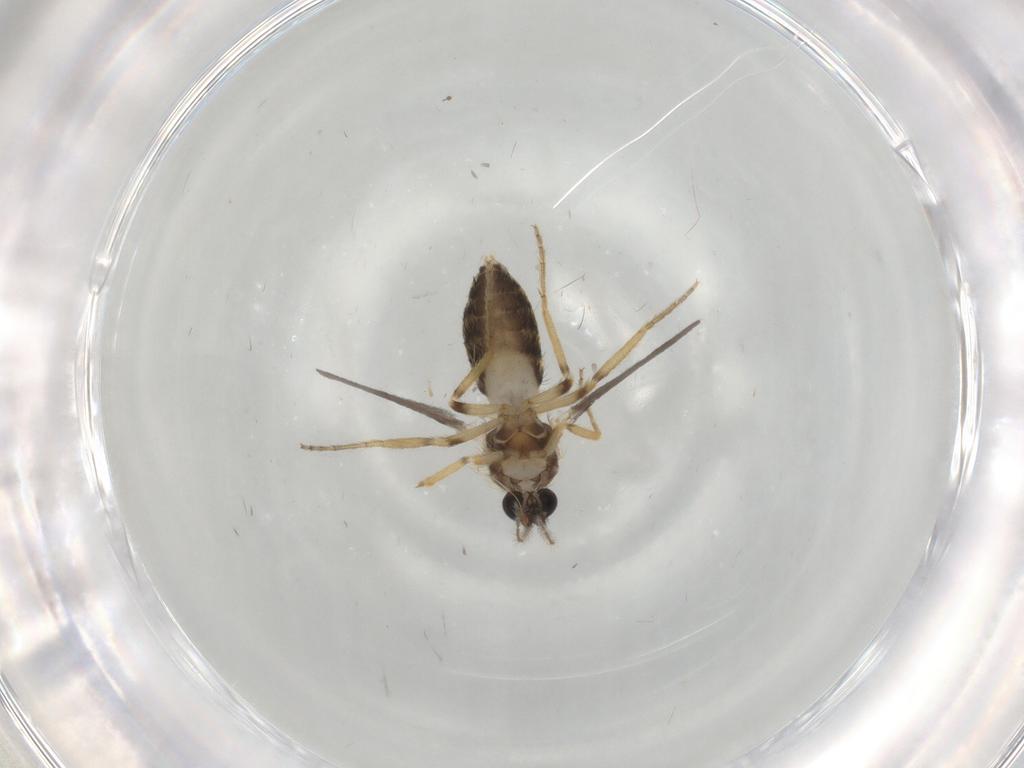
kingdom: Animalia
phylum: Arthropoda
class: Insecta
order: Diptera
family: Ceratopogonidae
